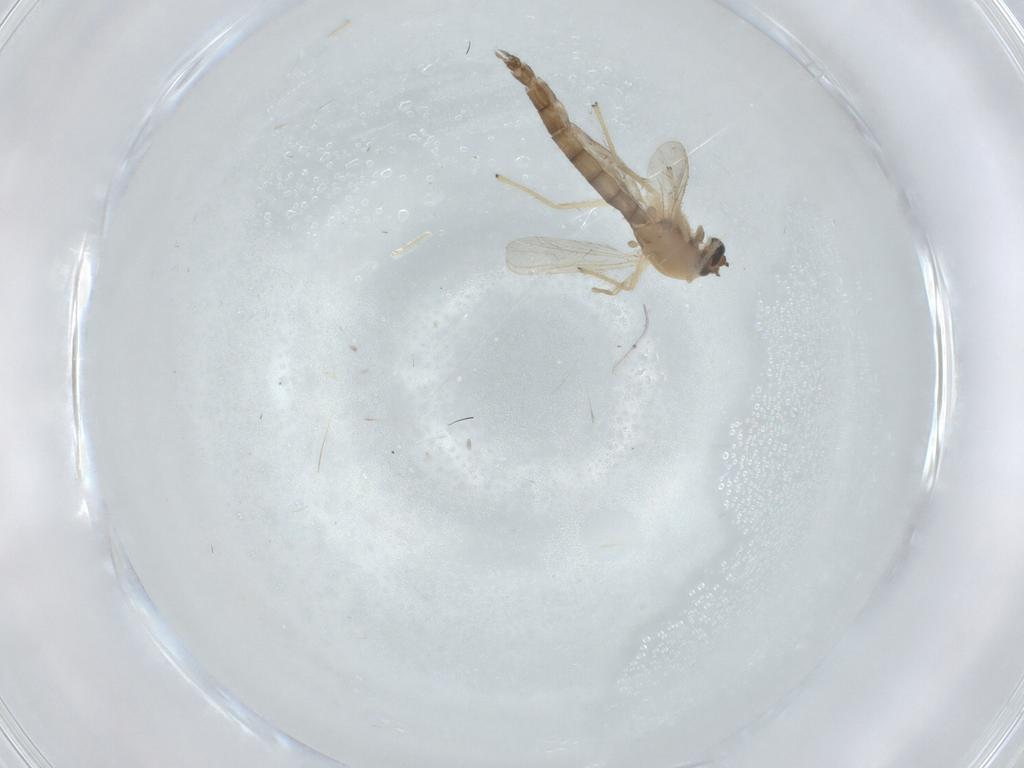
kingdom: Animalia
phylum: Arthropoda
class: Insecta
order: Diptera
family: Chironomidae
